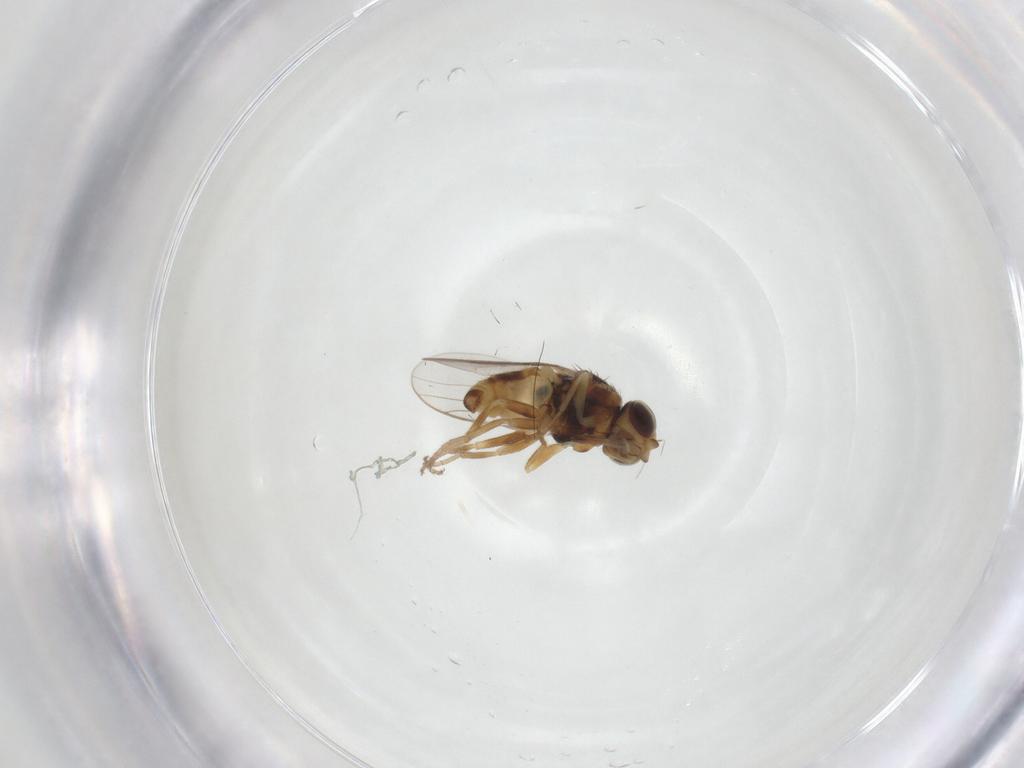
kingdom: Animalia
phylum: Arthropoda
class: Insecta
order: Diptera
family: Chloropidae
